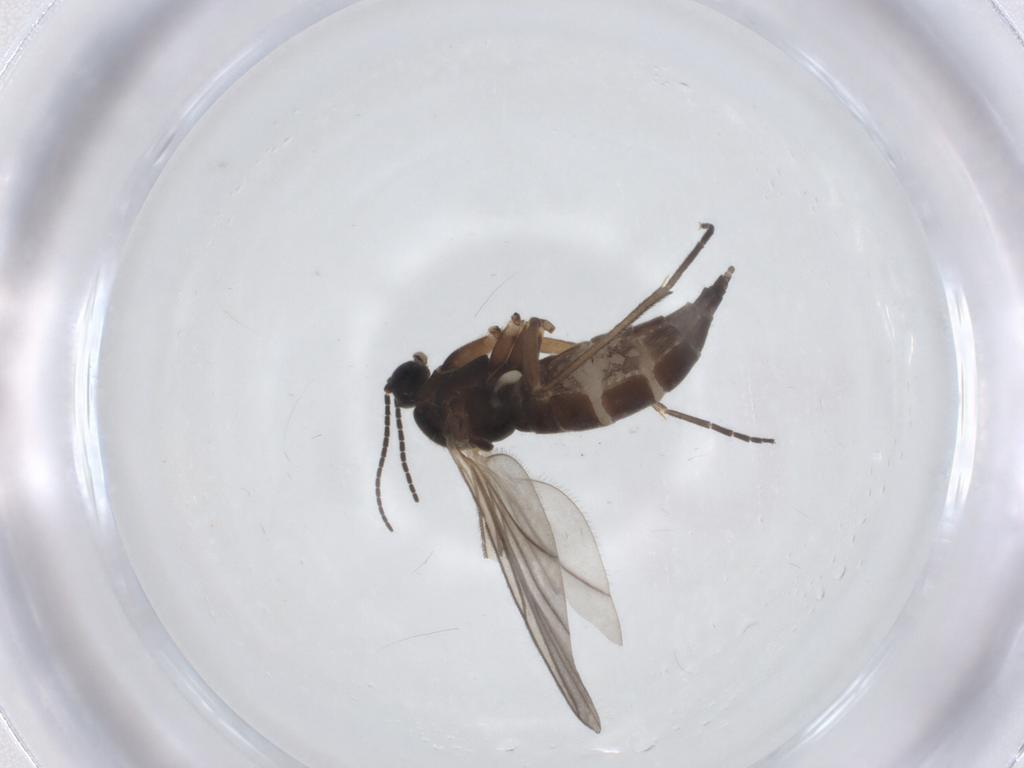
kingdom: Animalia
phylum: Arthropoda
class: Insecta
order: Diptera
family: Sciaridae
